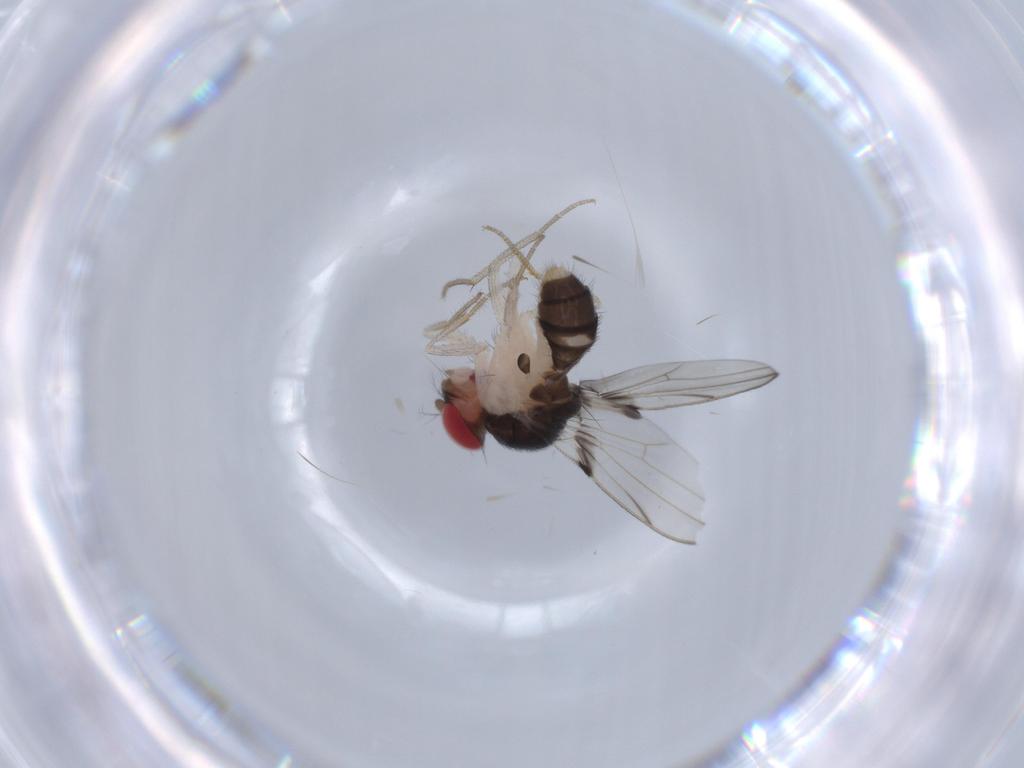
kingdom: Animalia
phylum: Arthropoda
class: Insecta
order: Diptera
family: Drosophilidae
